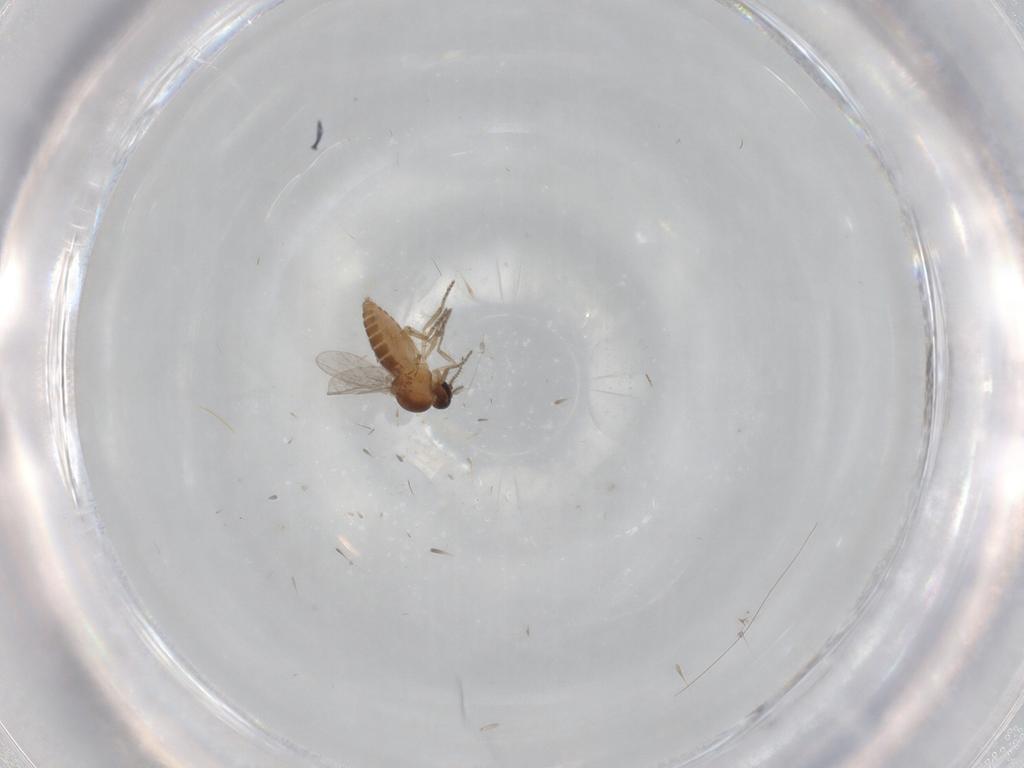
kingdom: Animalia
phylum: Arthropoda
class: Insecta
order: Diptera
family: Ceratopogonidae
